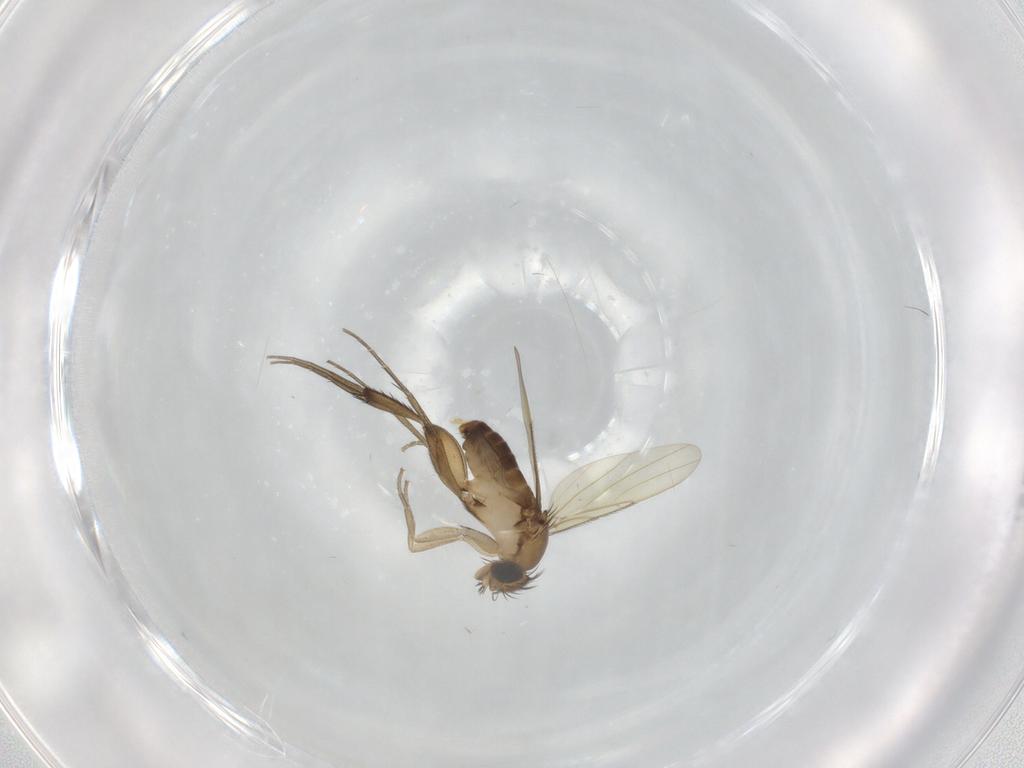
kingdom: Animalia
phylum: Arthropoda
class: Insecta
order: Diptera
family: Phoridae
